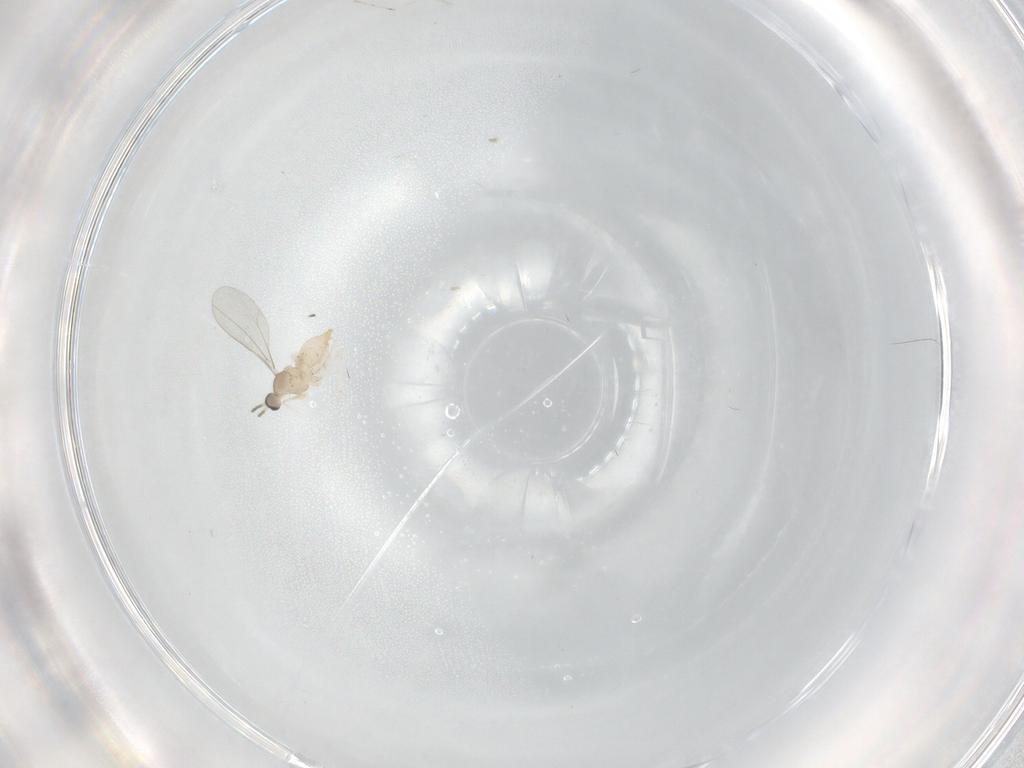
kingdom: Animalia
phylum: Arthropoda
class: Insecta
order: Diptera
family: Cecidomyiidae
